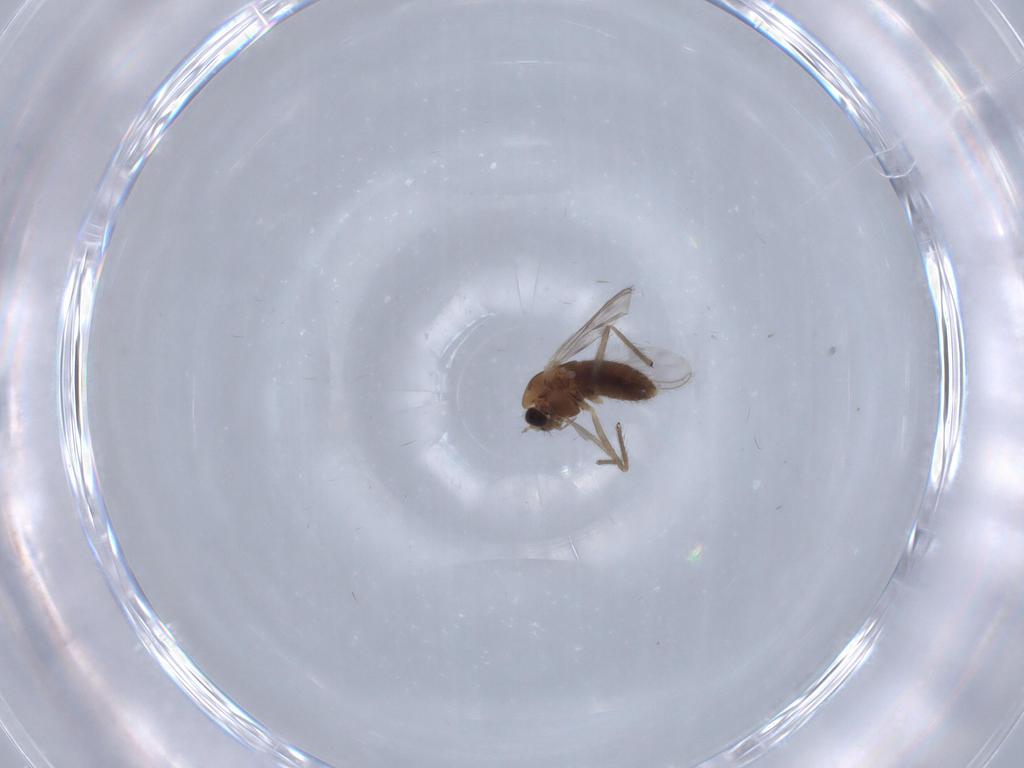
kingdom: Animalia
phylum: Arthropoda
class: Insecta
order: Diptera
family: Chironomidae
